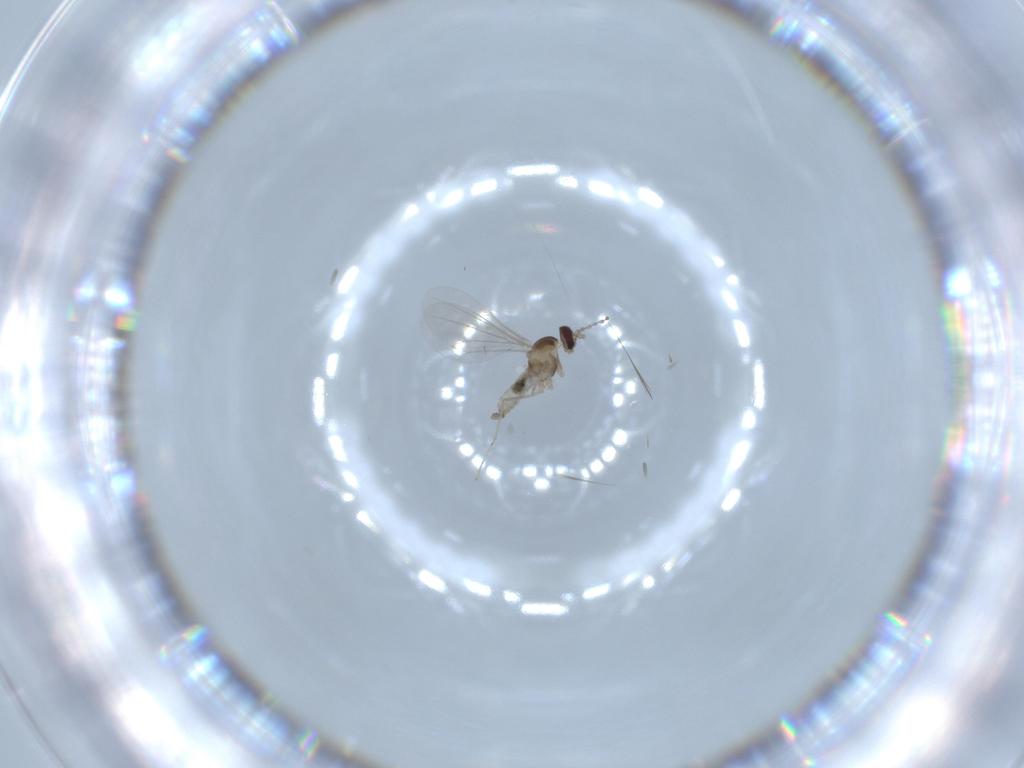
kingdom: Animalia
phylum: Arthropoda
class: Insecta
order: Diptera
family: Cecidomyiidae
